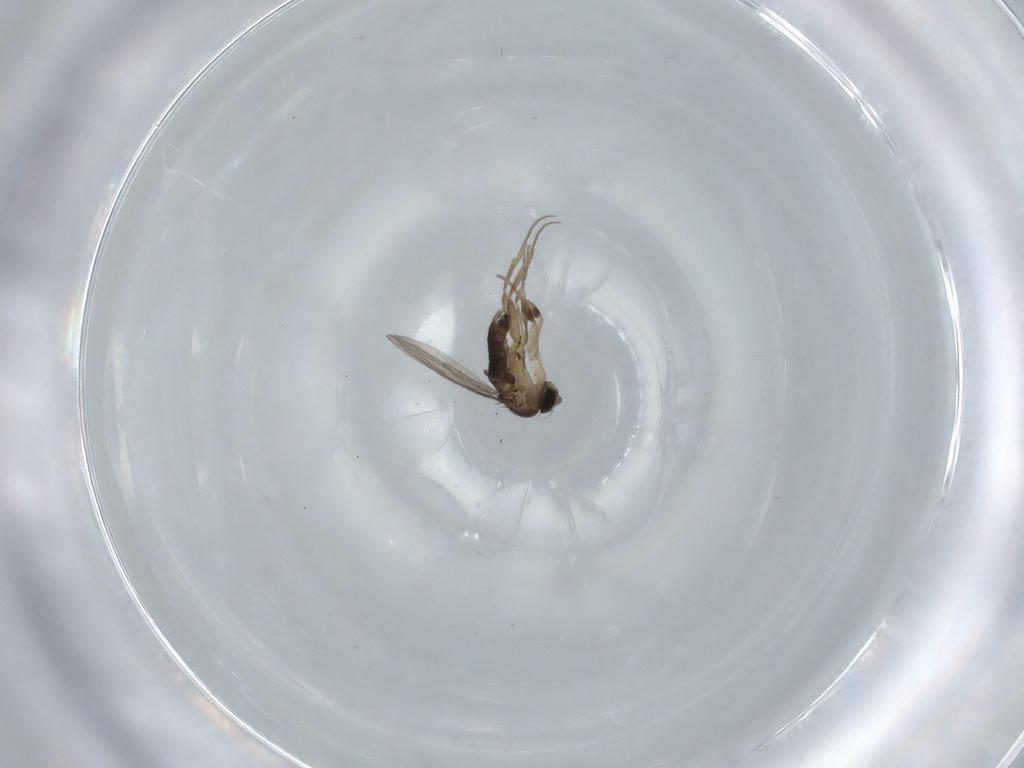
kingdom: Animalia
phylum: Arthropoda
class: Insecta
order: Diptera
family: Phoridae
